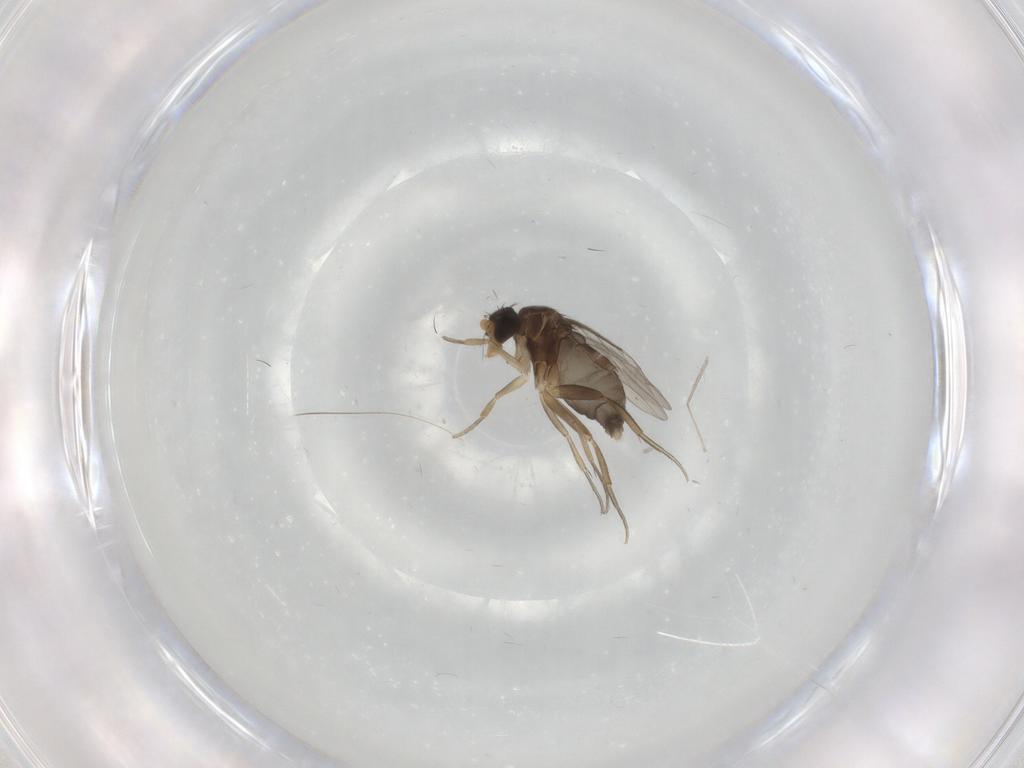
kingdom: Animalia
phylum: Arthropoda
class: Insecta
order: Diptera
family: Phoridae
